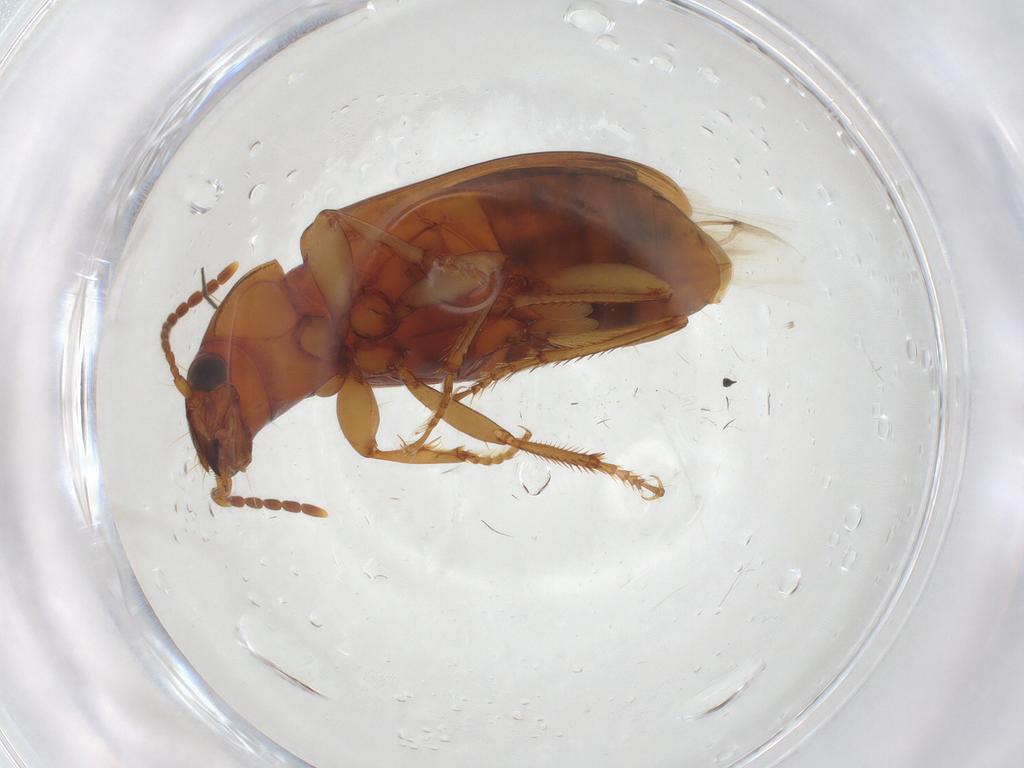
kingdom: Animalia
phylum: Arthropoda
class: Insecta
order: Coleoptera
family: Carabidae
